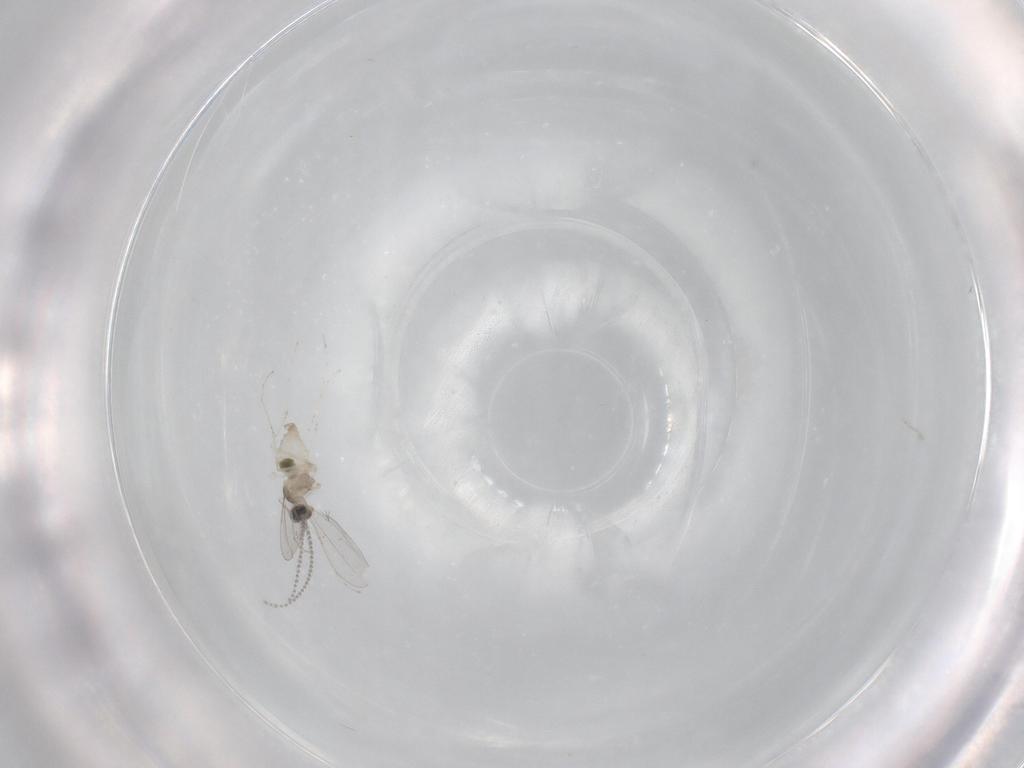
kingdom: Animalia
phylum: Arthropoda
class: Insecta
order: Diptera
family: Cecidomyiidae
